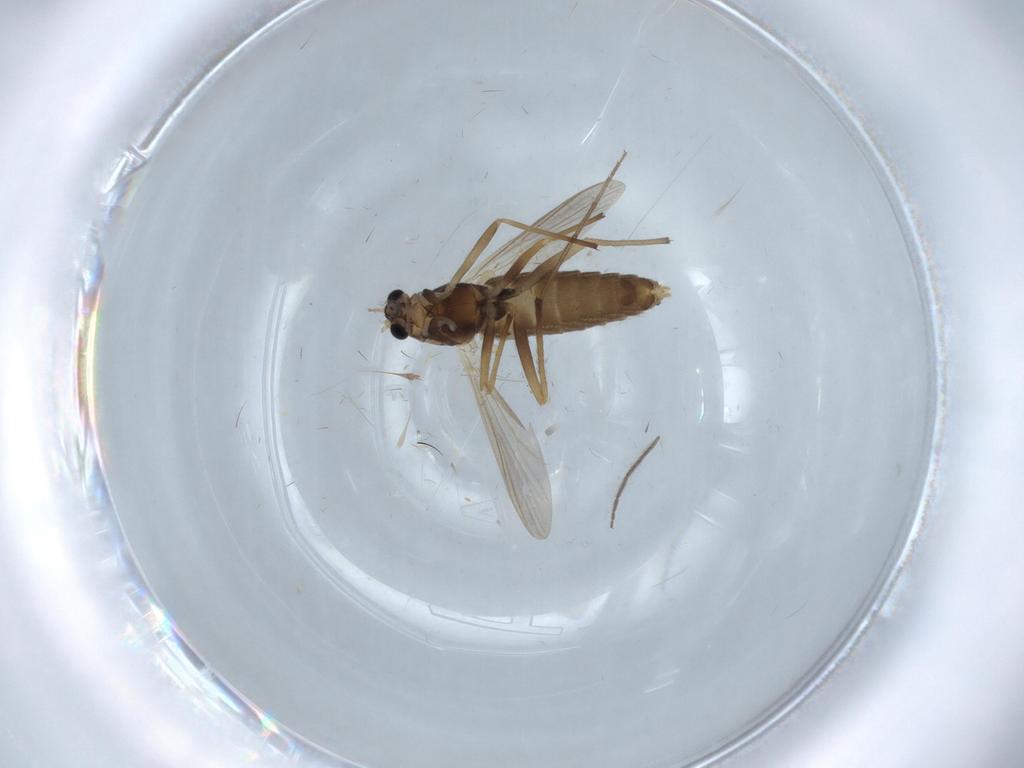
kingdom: Animalia
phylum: Arthropoda
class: Insecta
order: Diptera
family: Chironomidae
